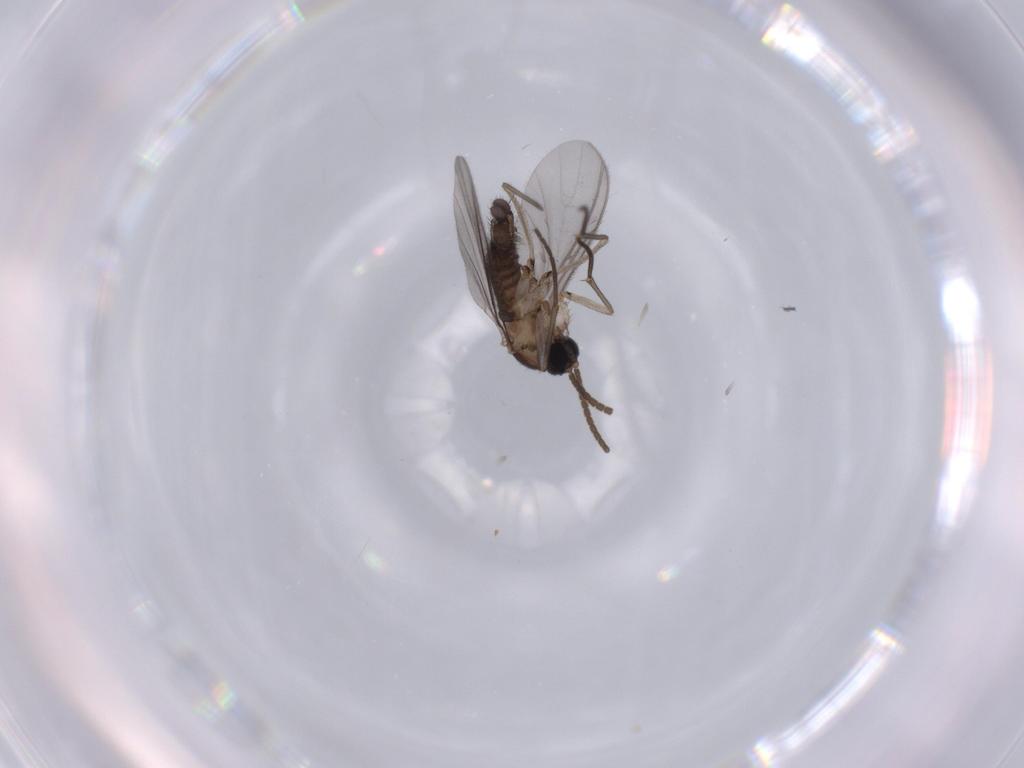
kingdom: Animalia
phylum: Arthropoda
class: Insecta
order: Diptera
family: Sciaridae
